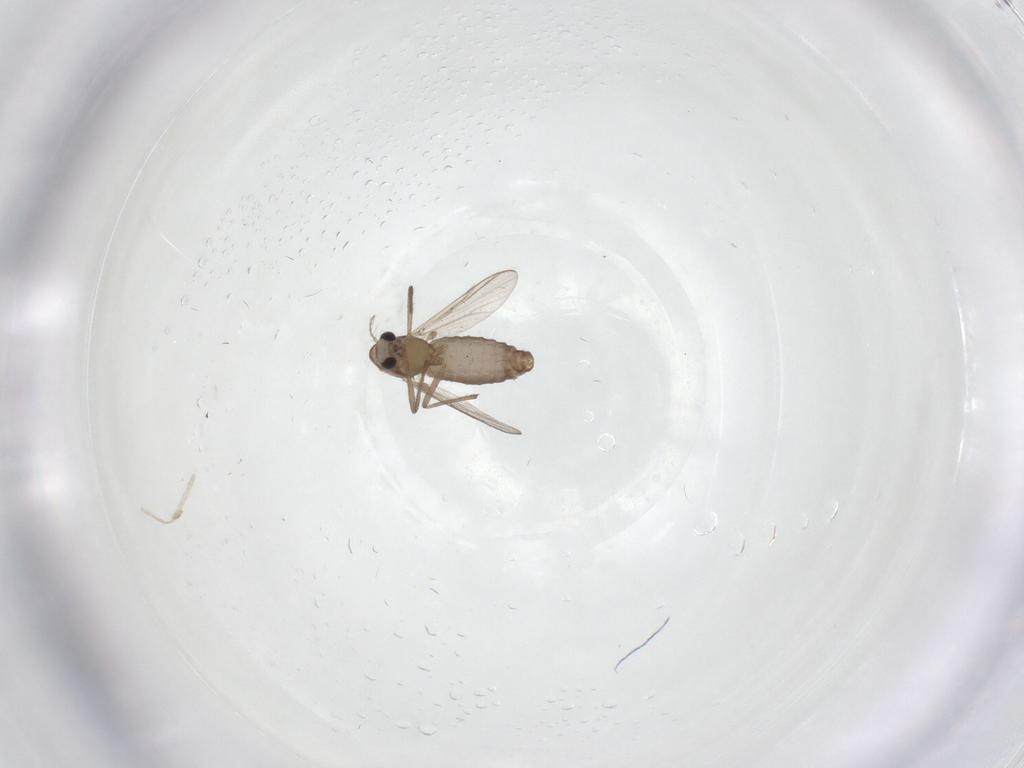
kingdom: Animalia
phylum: Arthropoda
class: Insecta
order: Diptera
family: Chironomidae
